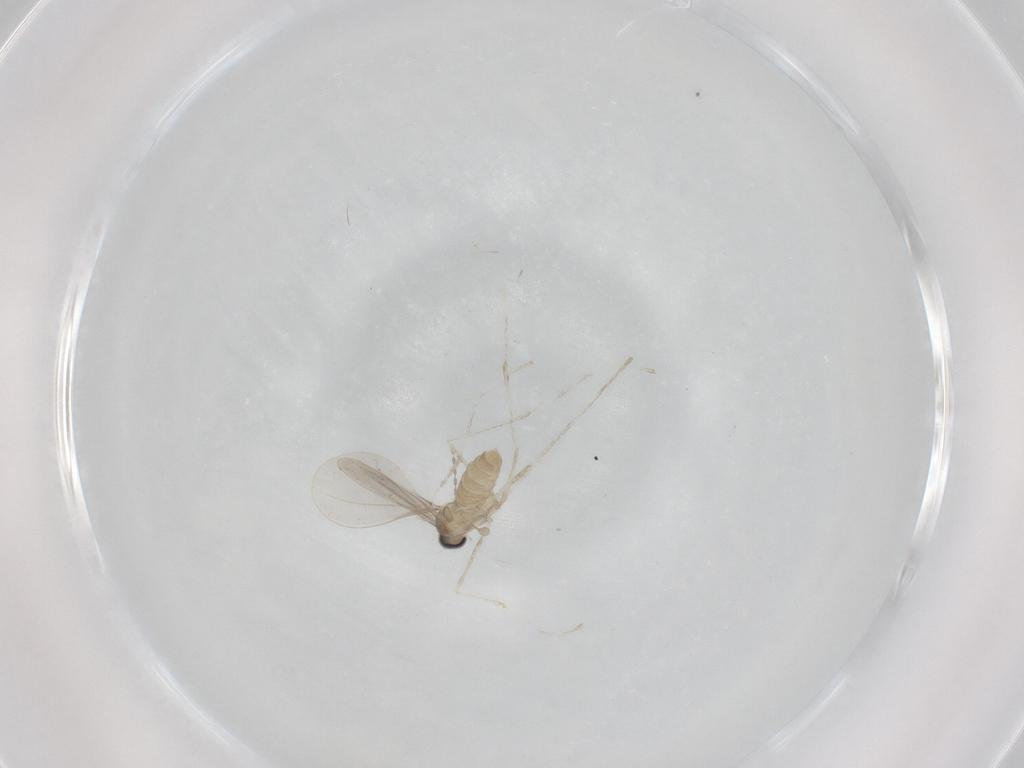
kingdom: Animalia
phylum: Arthropoda
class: Insecta
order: Diptera
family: Cecidomyiidae
